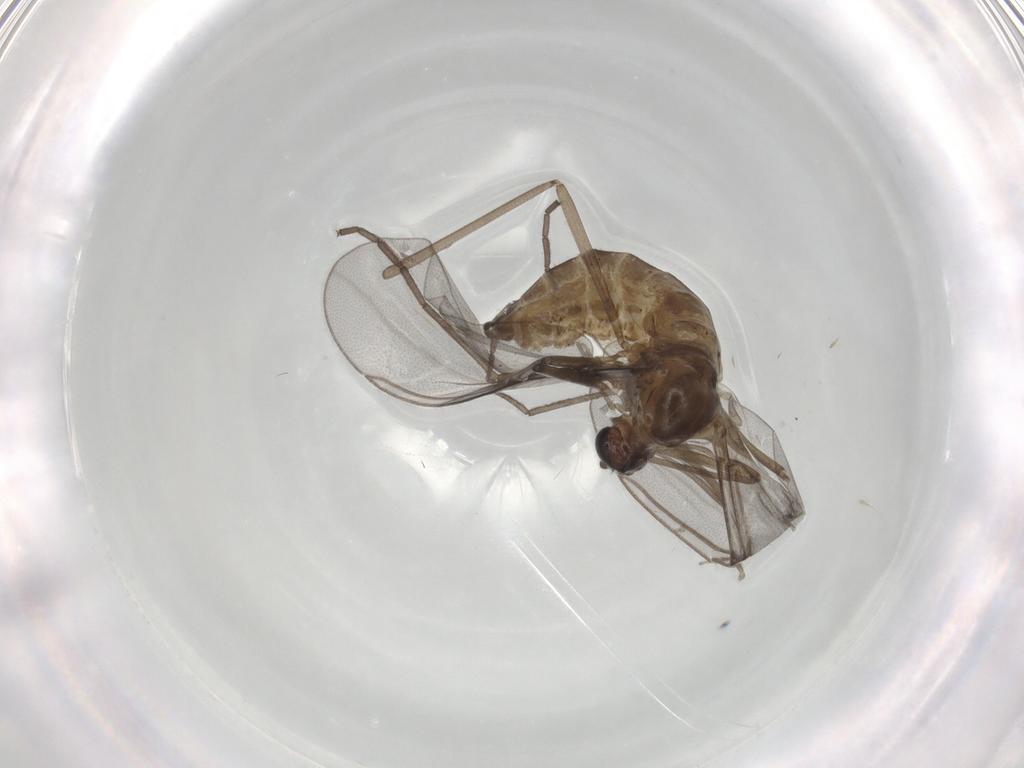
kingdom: Animalia
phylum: Arthropoda
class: Insecta
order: Diptera
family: Cecidomyiidae
